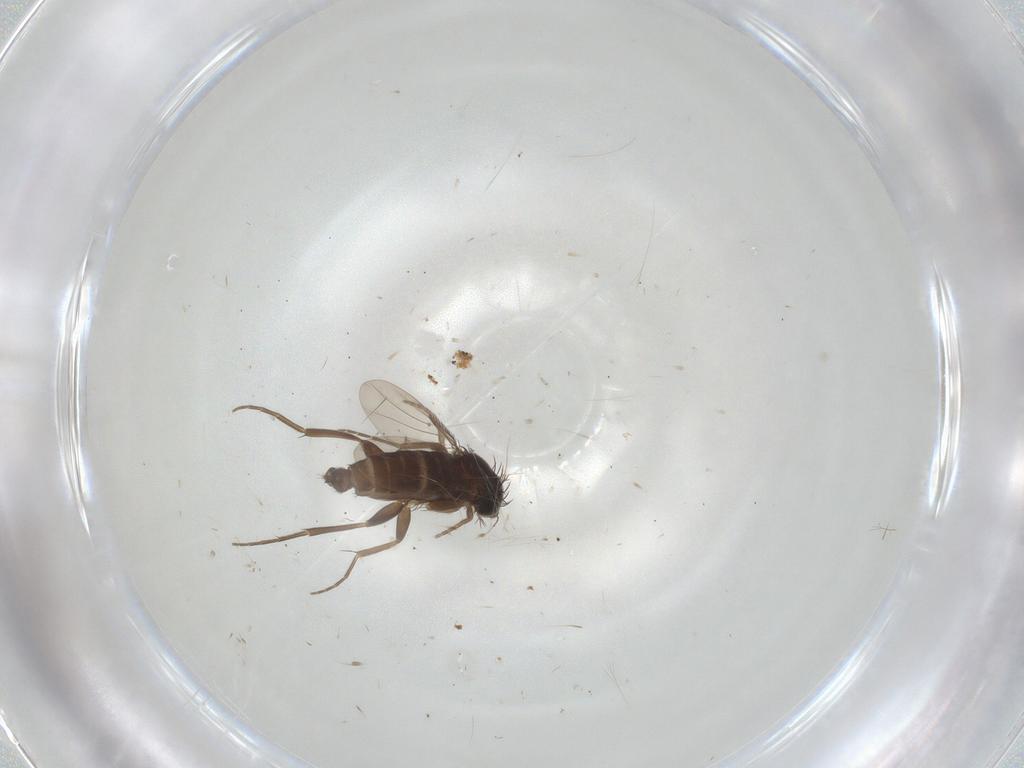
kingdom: Animalia
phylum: Arthropoda
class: Insecta
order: Diptera
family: Phoridae
